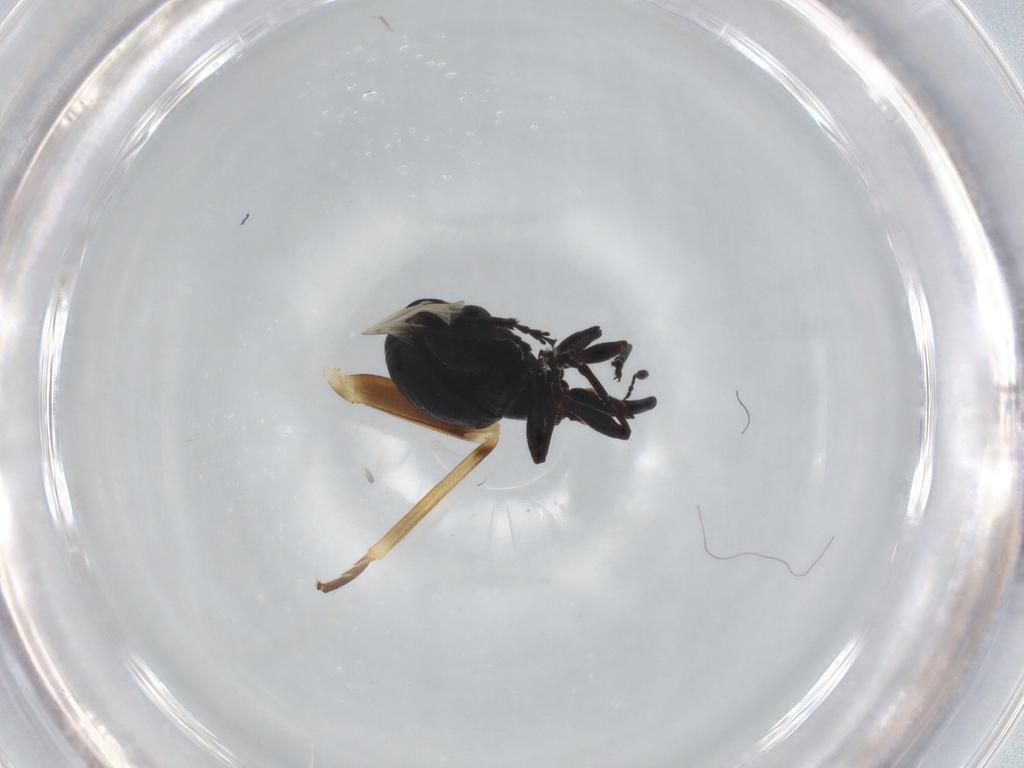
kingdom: Animalia
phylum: Arthropoda
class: Insecta
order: Coleoptera
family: Brentidae
